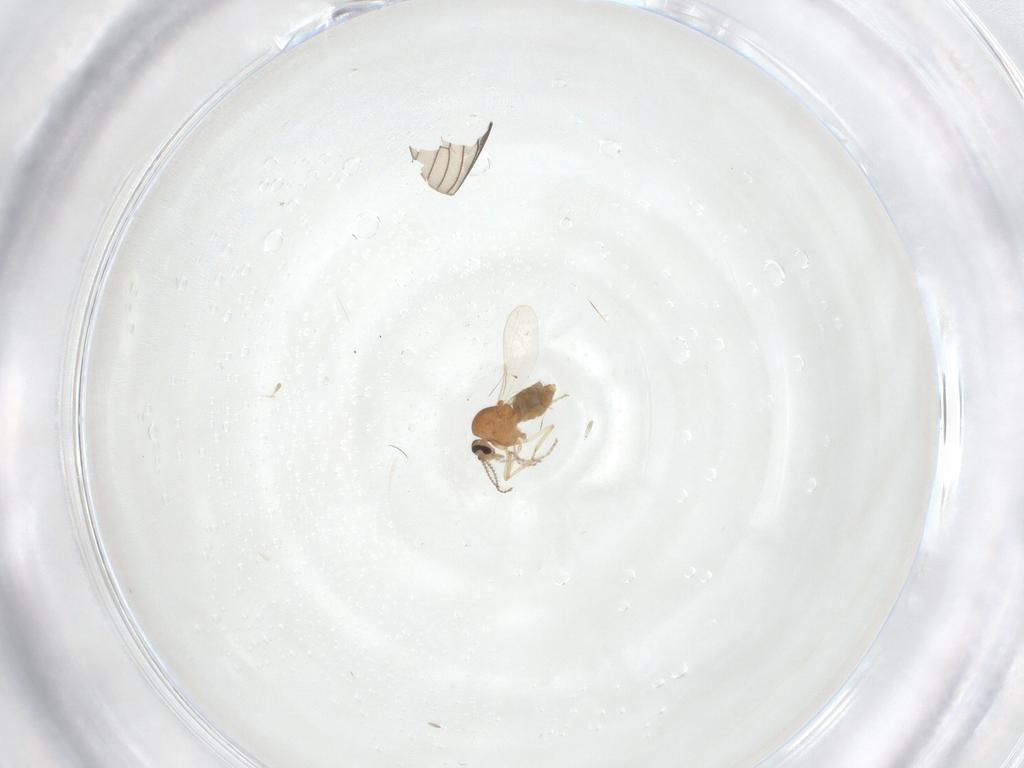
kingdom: Animalia
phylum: Arthropoda
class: Insecta
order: Diptera
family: Ceratopogonidae
